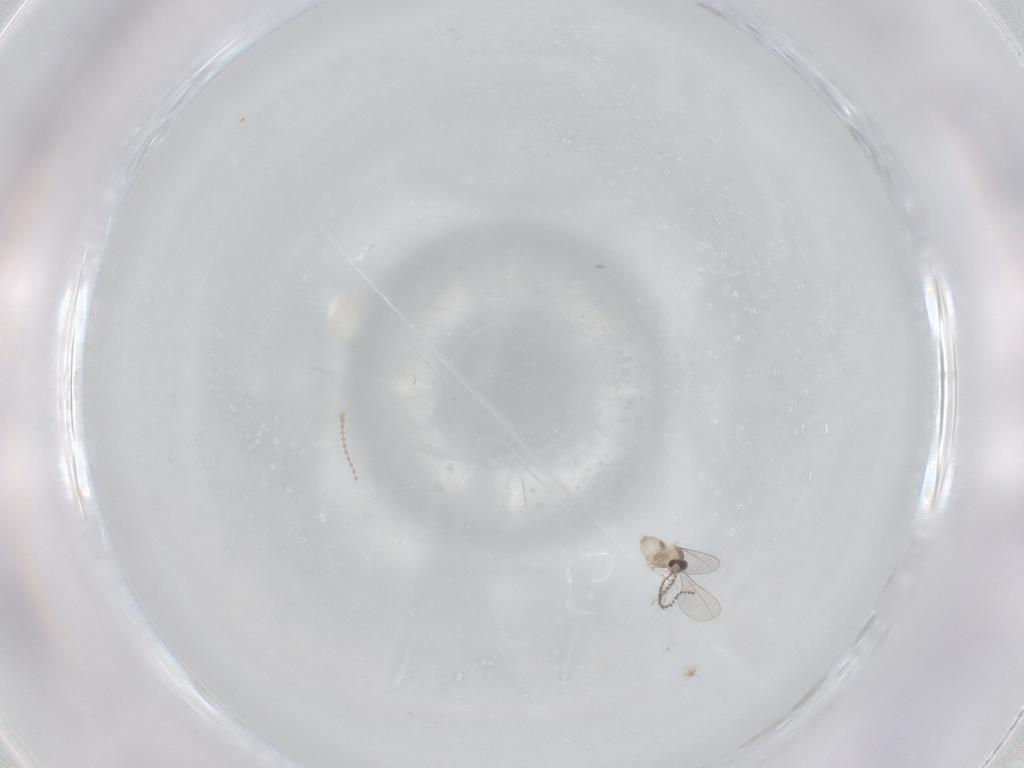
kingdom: Animalia
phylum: Arthropoda
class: Insecta
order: Diptera
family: Cecidomyiidae
